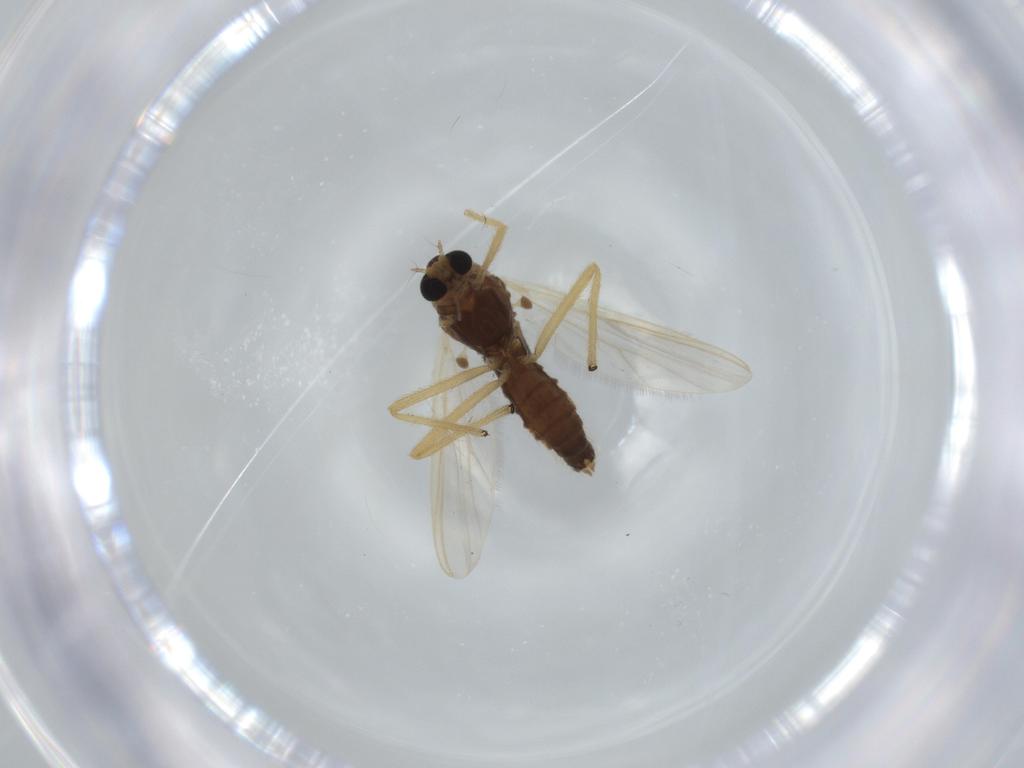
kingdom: Animalia
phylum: Arthropoda
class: Insecta
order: Diptera
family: Chironomidae
